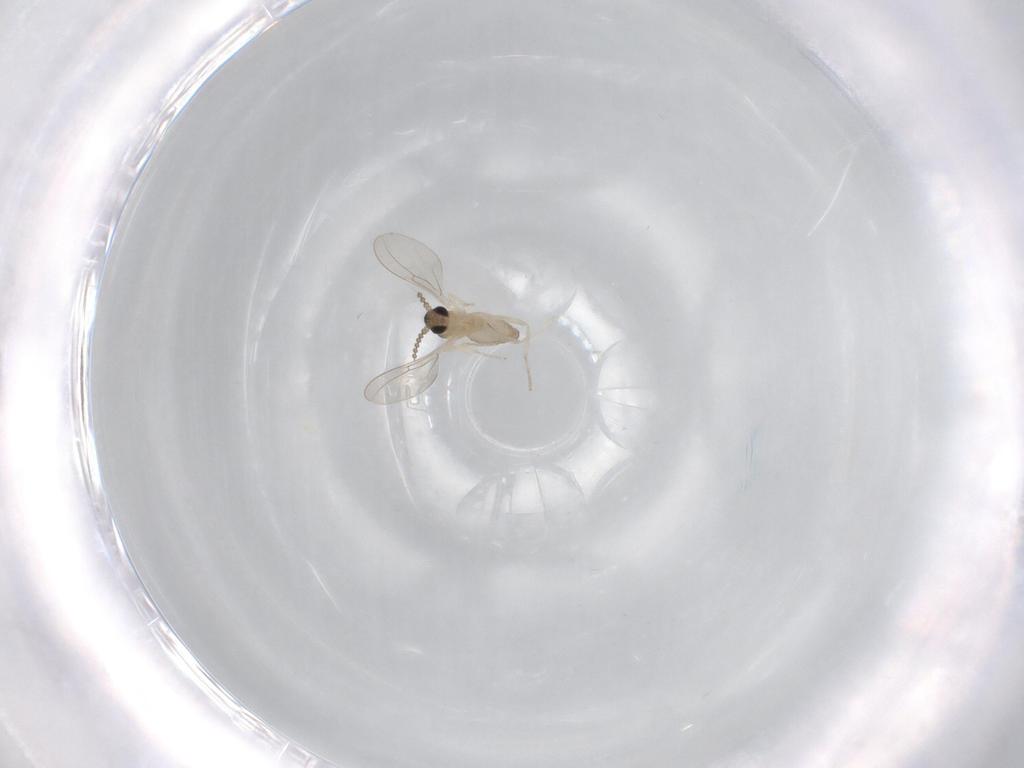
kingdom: Animalia
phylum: Arthropoda
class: Insecta
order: Diptera
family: Cecidomyiidae
